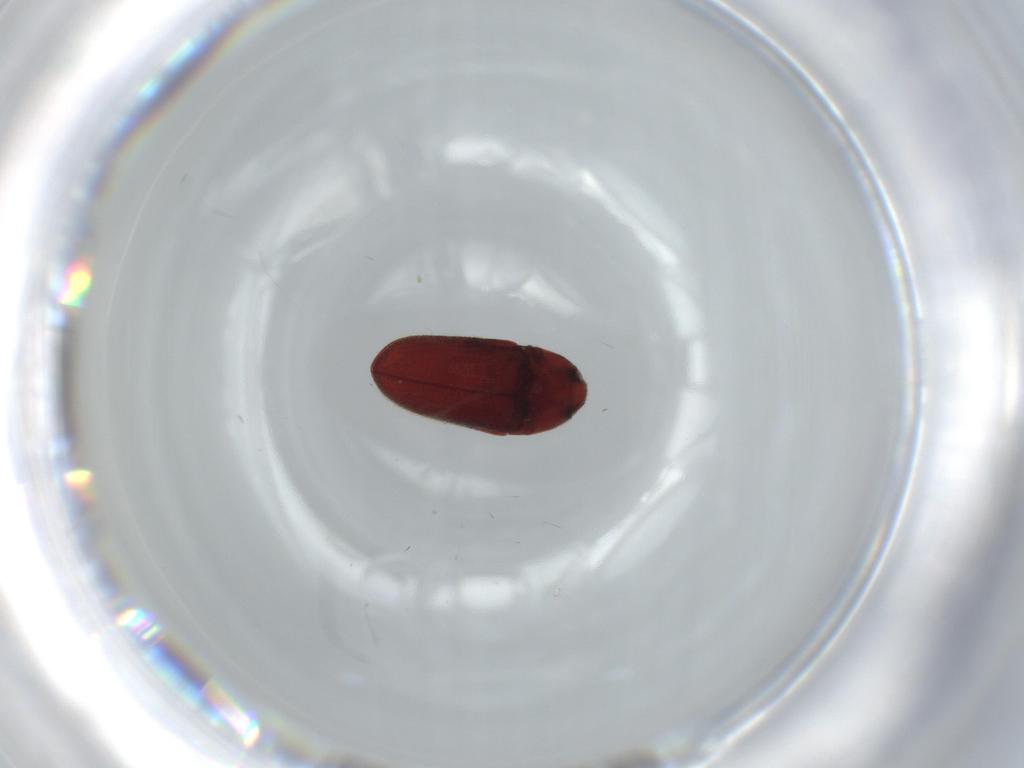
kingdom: Animalia
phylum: Arthropoda
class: Insecta
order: Coleoptera
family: Throscidae
